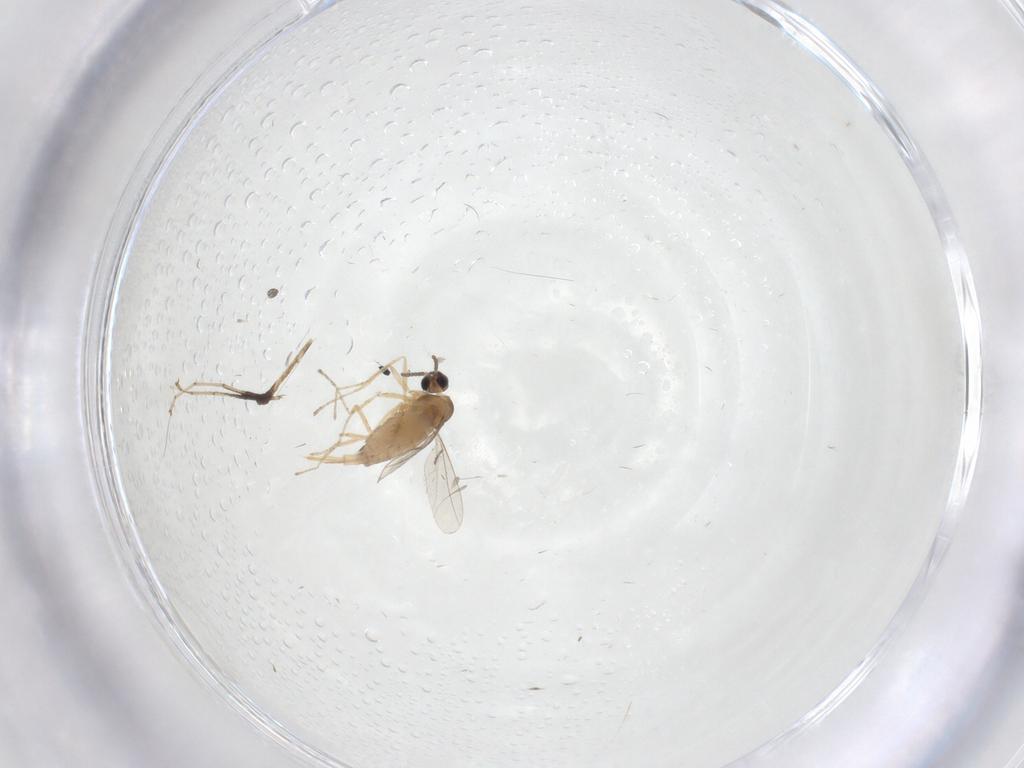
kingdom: Animalia
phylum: Arthropoda
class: Insecta
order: Diptera
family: Cecidomyiidae
